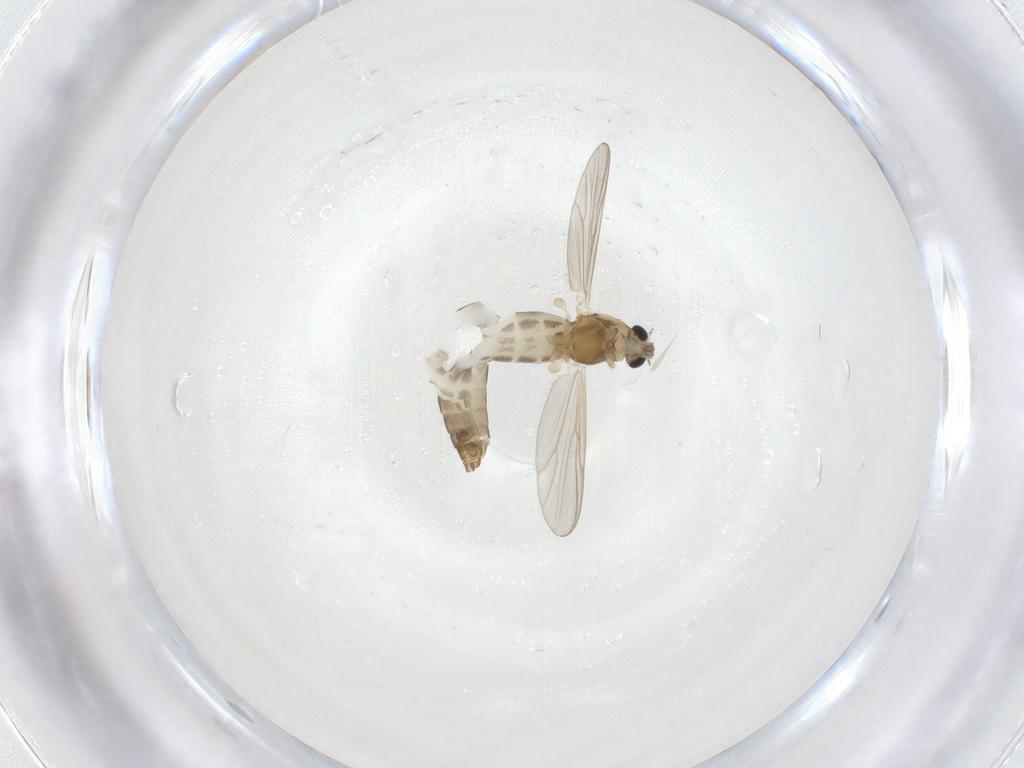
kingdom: Animalia
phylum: Arthropoda
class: Insecta
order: Diptera
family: Chironomidae
